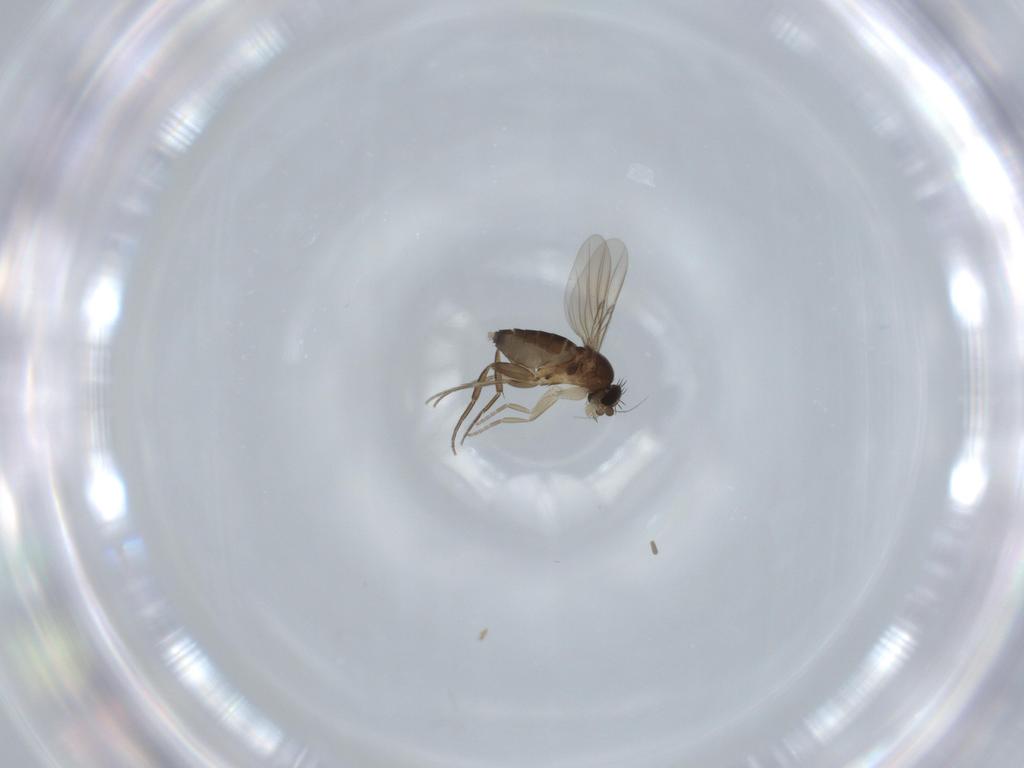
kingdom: Animalia
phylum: Arthropoda
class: Insecta
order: Diptera
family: Phoridae
